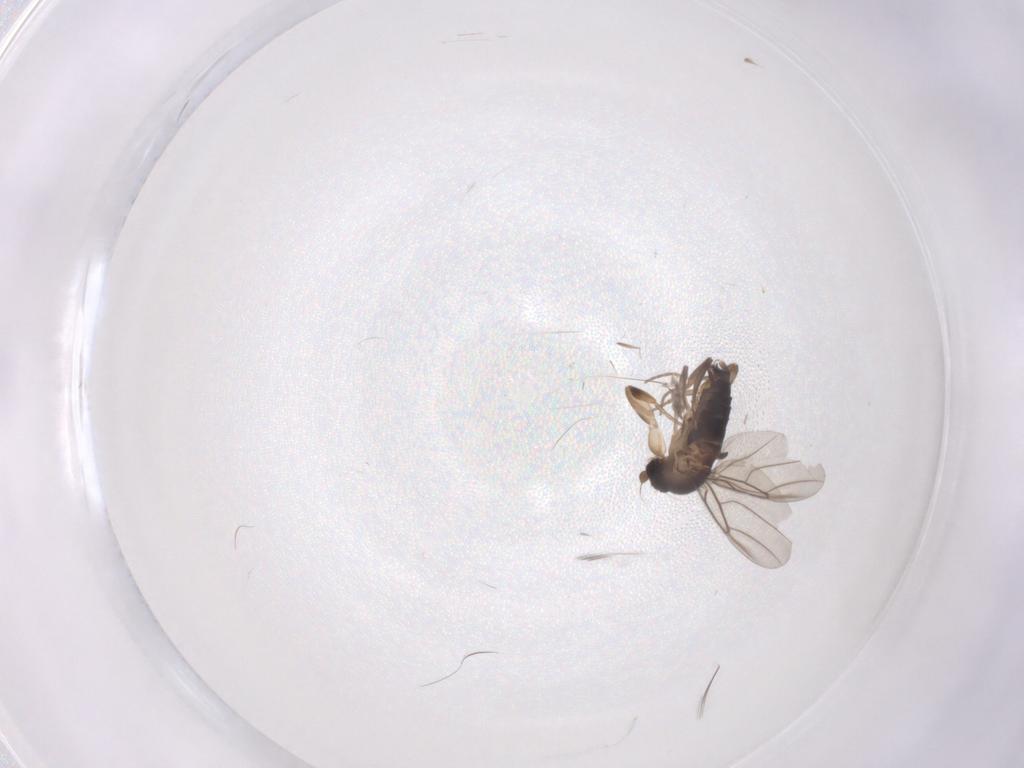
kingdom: Animalia
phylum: Arthropoda
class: Insecta
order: Diptera
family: Phoridae
